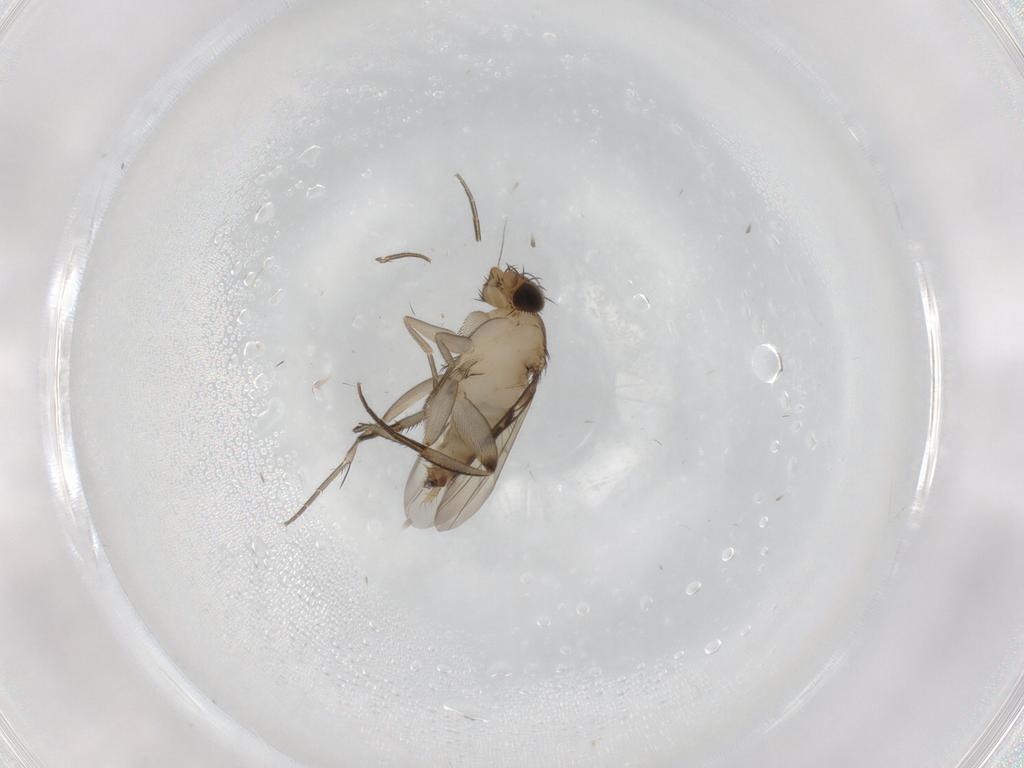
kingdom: Animalia
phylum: Arthropoda
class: Insecta
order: Diptera
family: Phoridae
